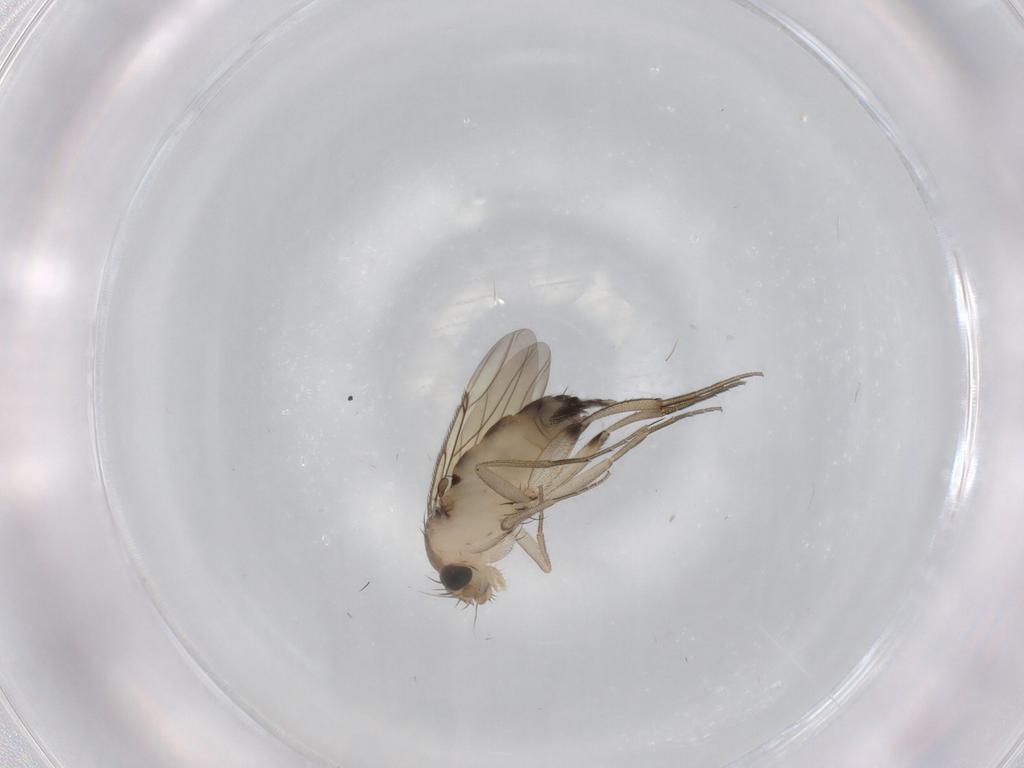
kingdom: Animalia
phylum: Arthropoda
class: Insecta
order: Diptera
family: Phoridae
